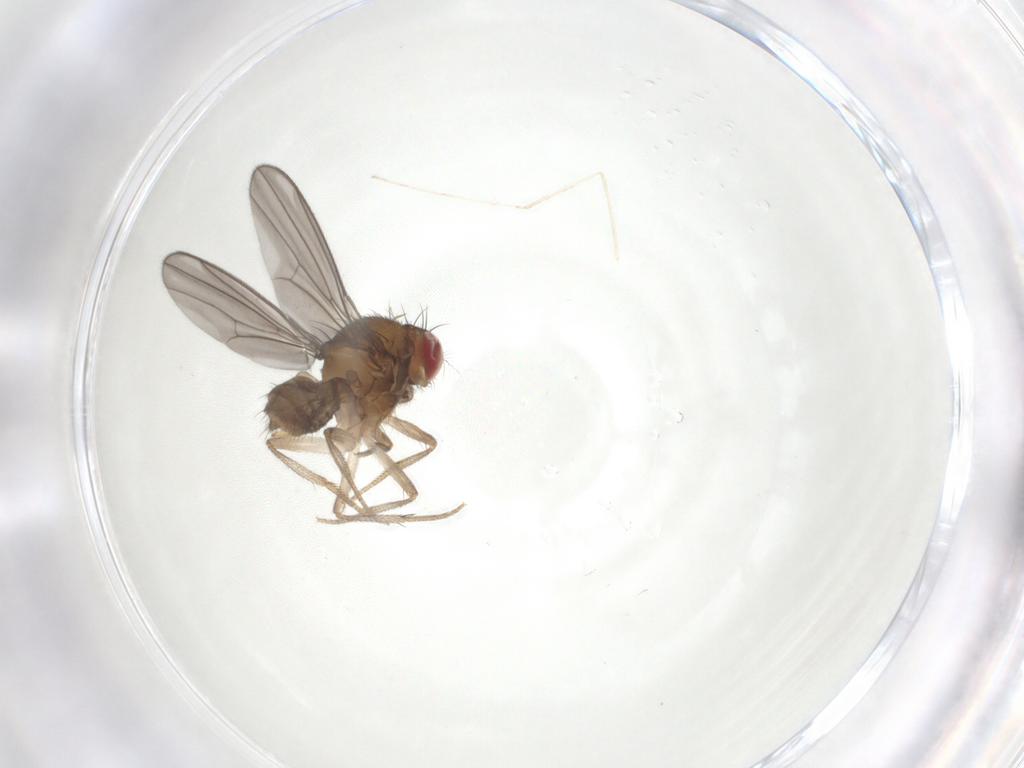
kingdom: Animalia
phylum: Arthropoda
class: Insecta
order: Diptera
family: Drosophilidae
